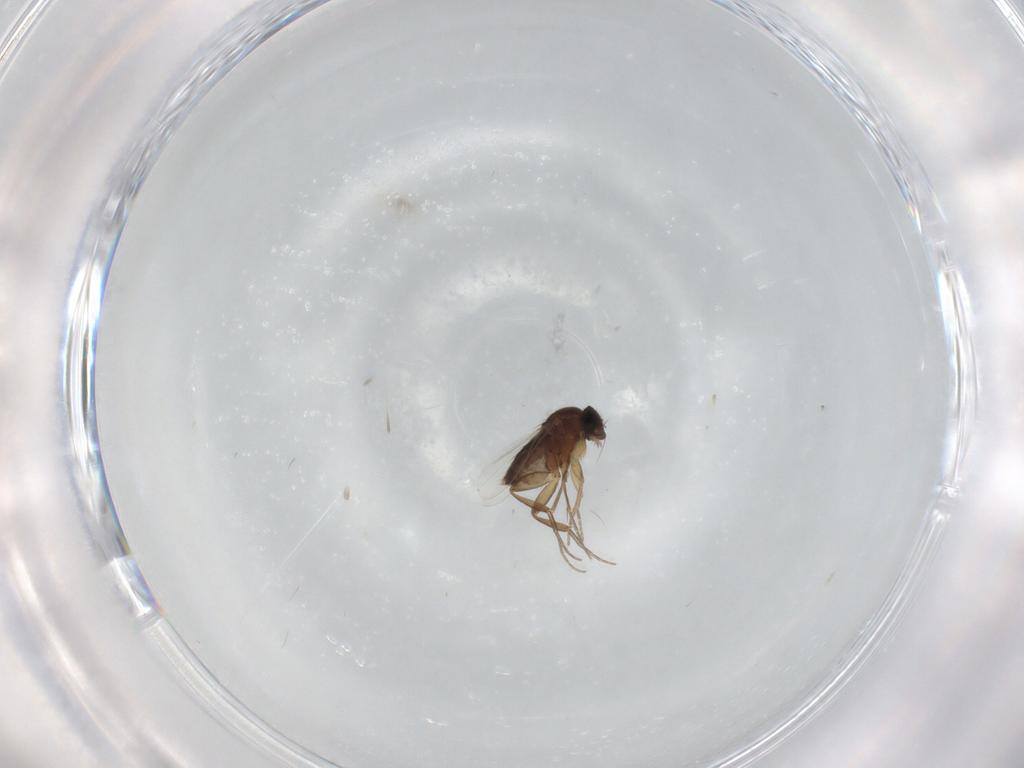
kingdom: Animalia
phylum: Arthropoda
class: Insecta
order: Diptera
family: Phoridae
